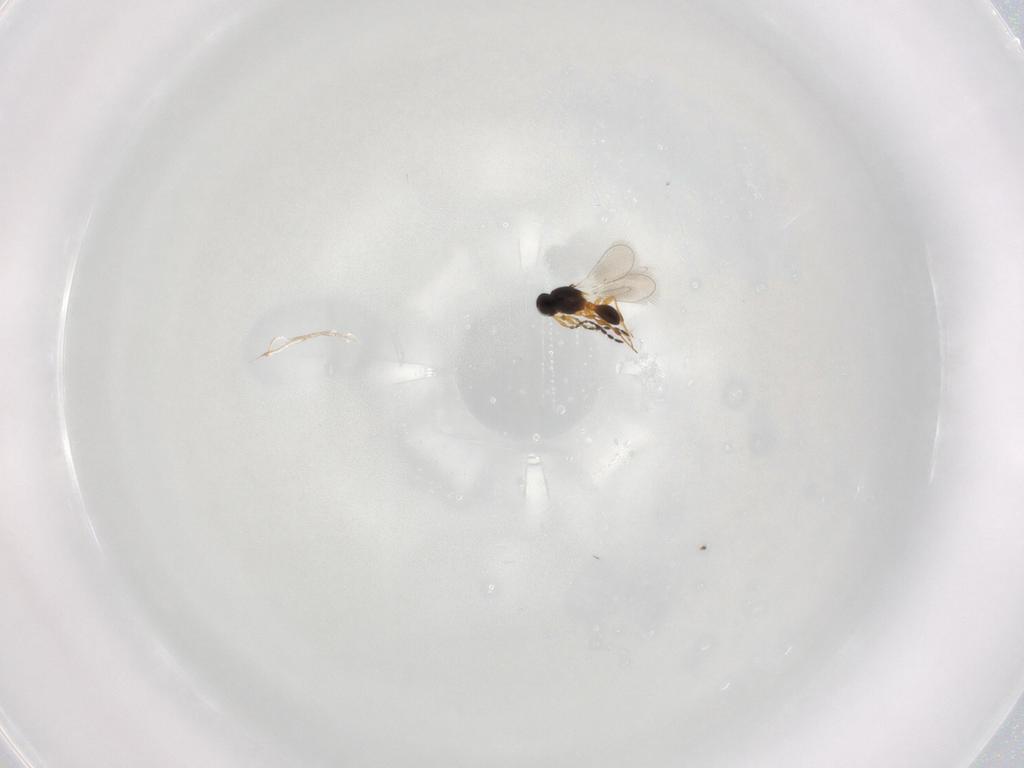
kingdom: Animalia
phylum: Arthropoda
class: Insecta
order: Hymenoptera
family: Platygastridae
